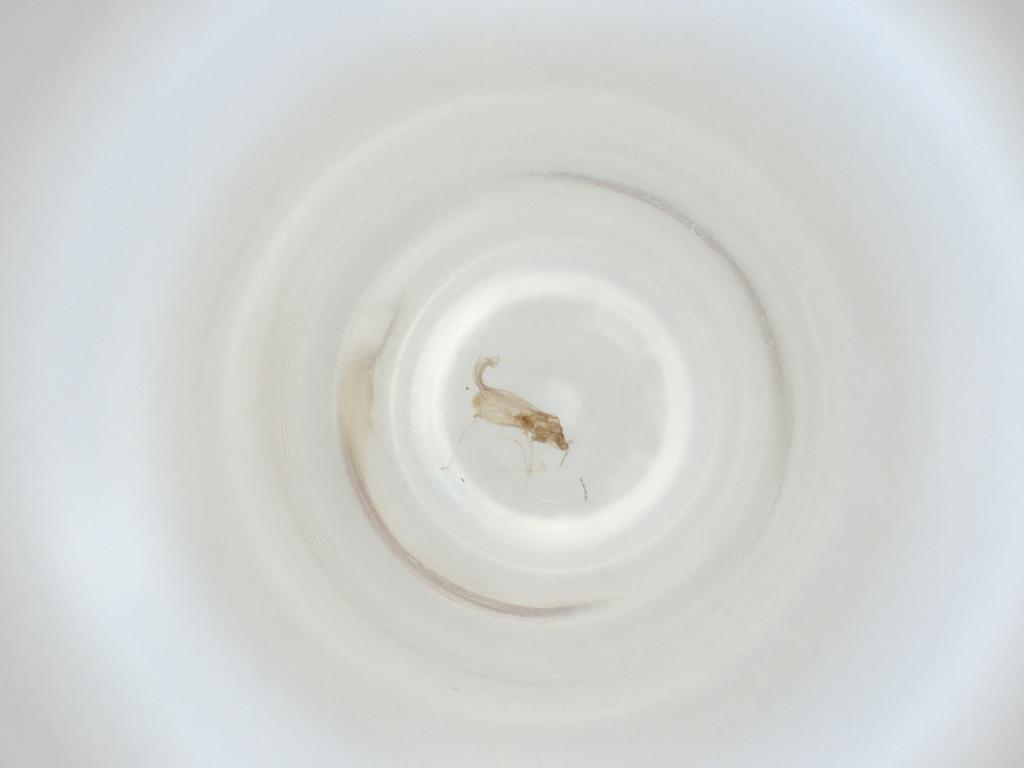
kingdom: Animalia
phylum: Arthropoda
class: Insecta
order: Diptera
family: Cecidomyiidae
